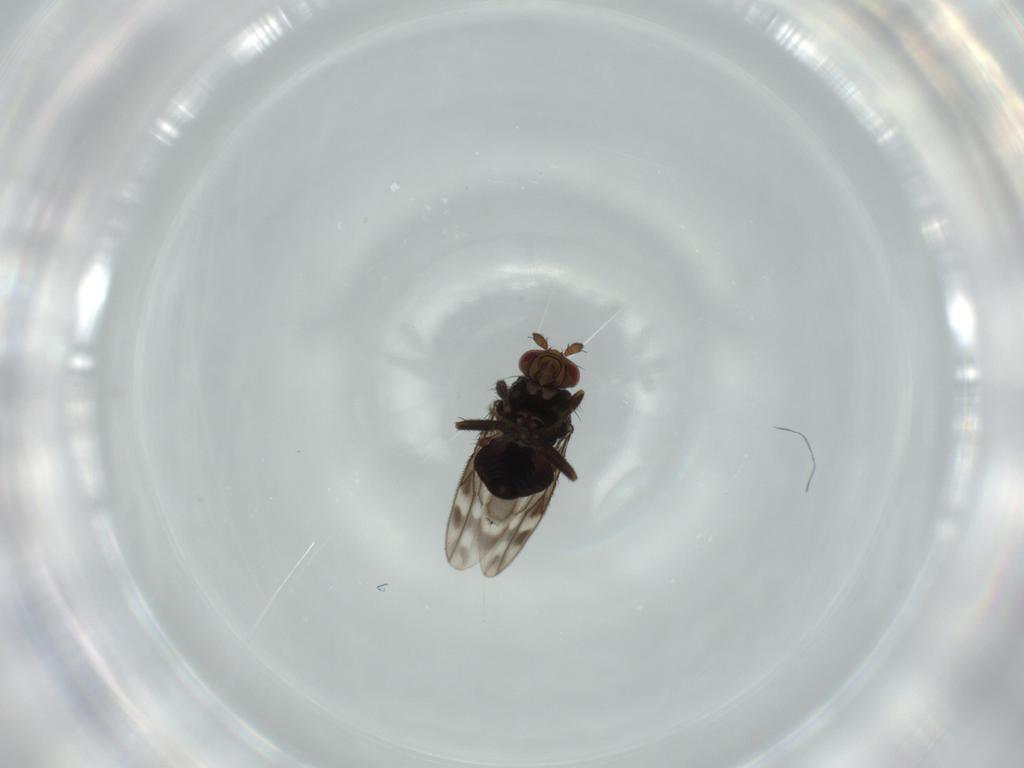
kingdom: Animalia
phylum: Arthropoda
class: Insecta
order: Diptera
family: Sphaeroceridae
